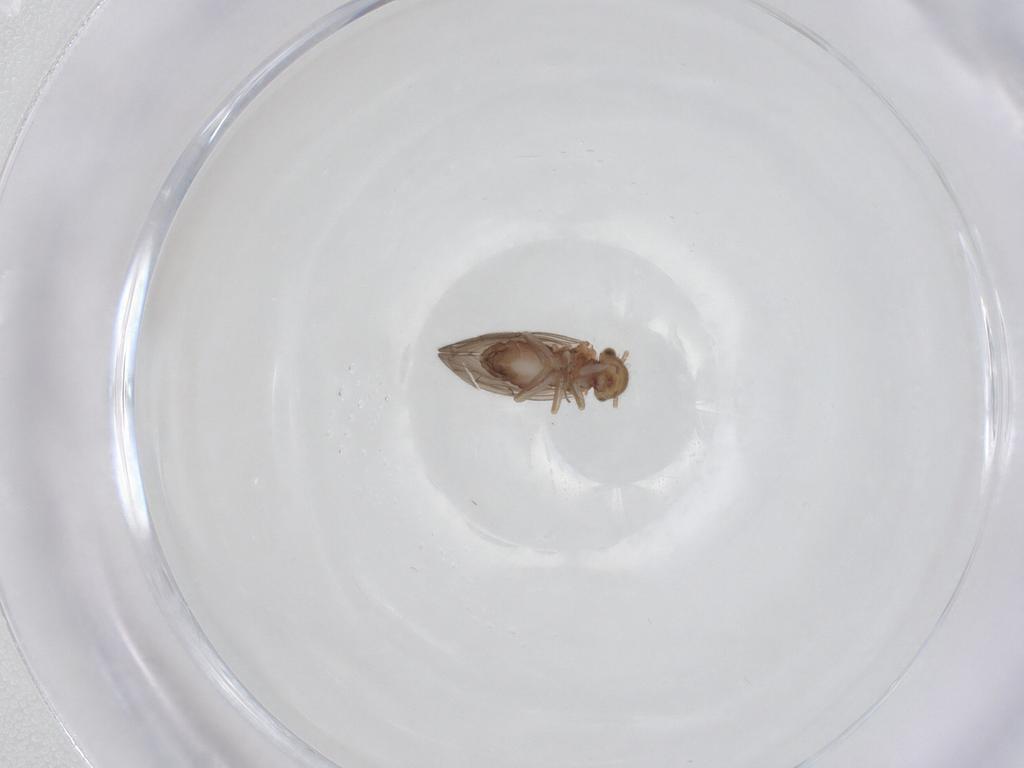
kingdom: Animalia
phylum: Arthropoda
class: Insecta
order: Psocodea
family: Ectopsocidae
